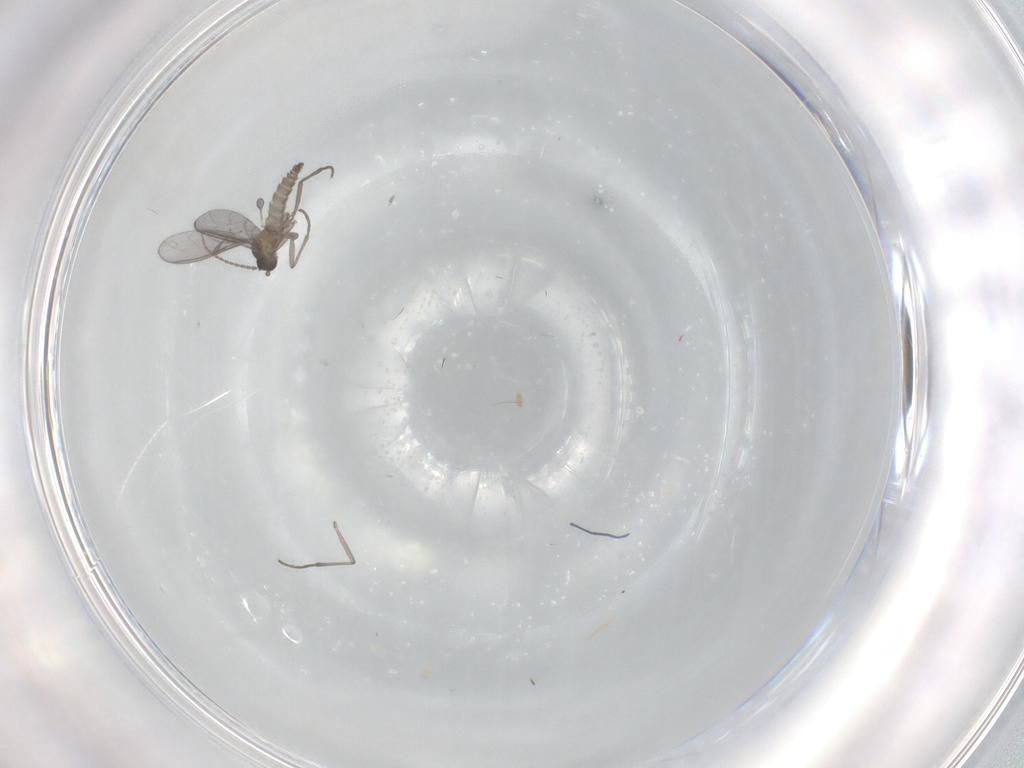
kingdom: Animalia
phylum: Arthropoda
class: Insecta
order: Diptera
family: Sciaridae
